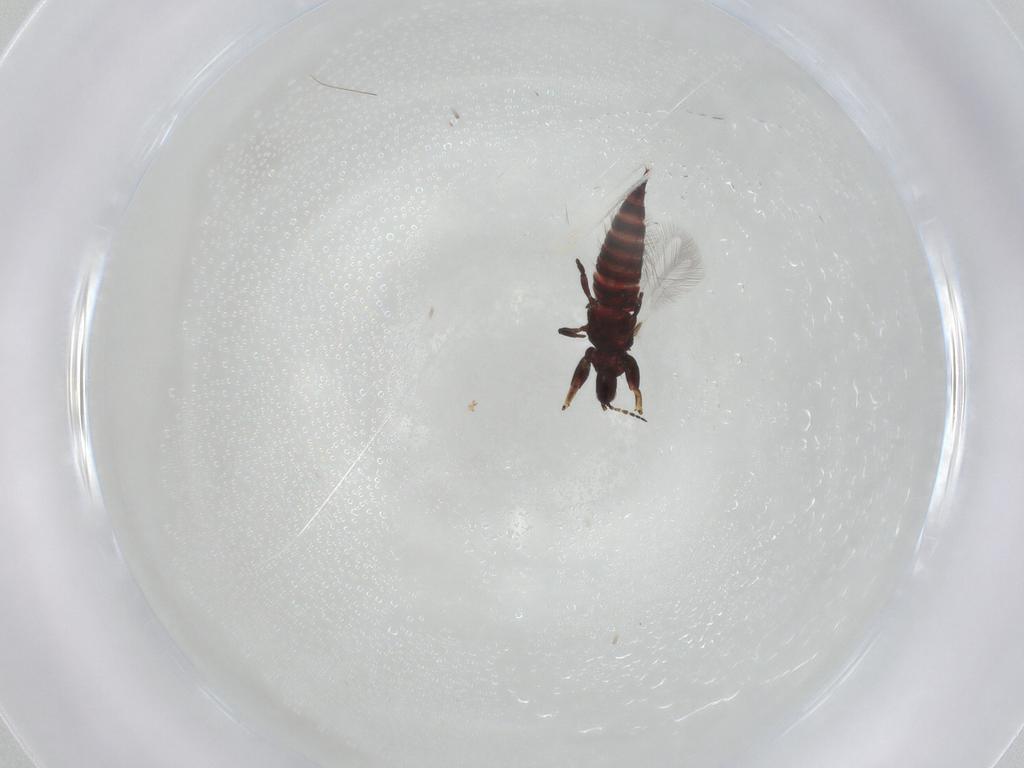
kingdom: Animalia
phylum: Arthropoda
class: Insecta
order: Thysanoptera
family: Phlaeothripidae
